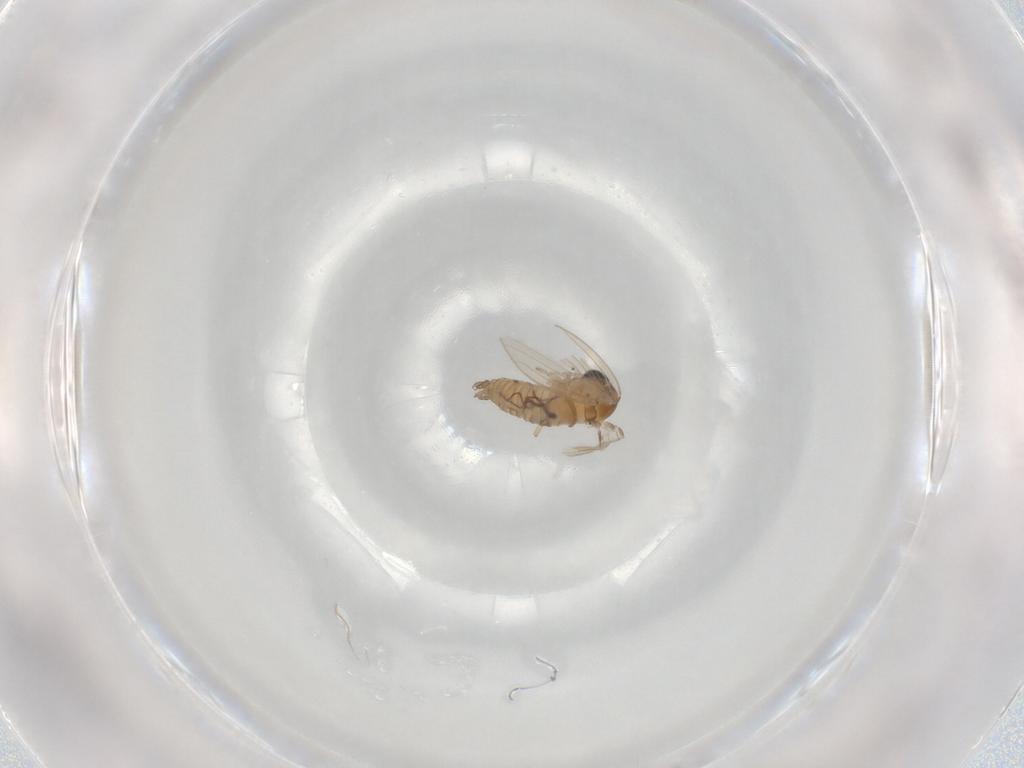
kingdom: Animalia
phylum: Arthropoda
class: Insecta
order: Diptera
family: Psychodidae
